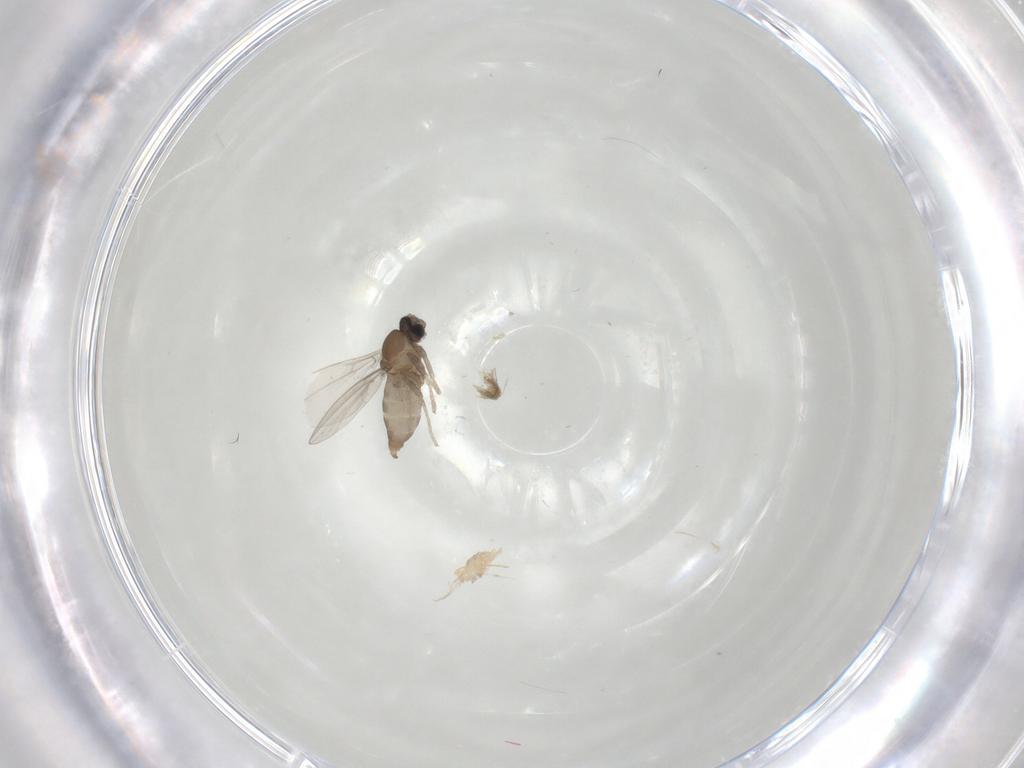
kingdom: Animalia
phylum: Arthropoda
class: Insecta
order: Diptera
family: Cecidomyiidae
